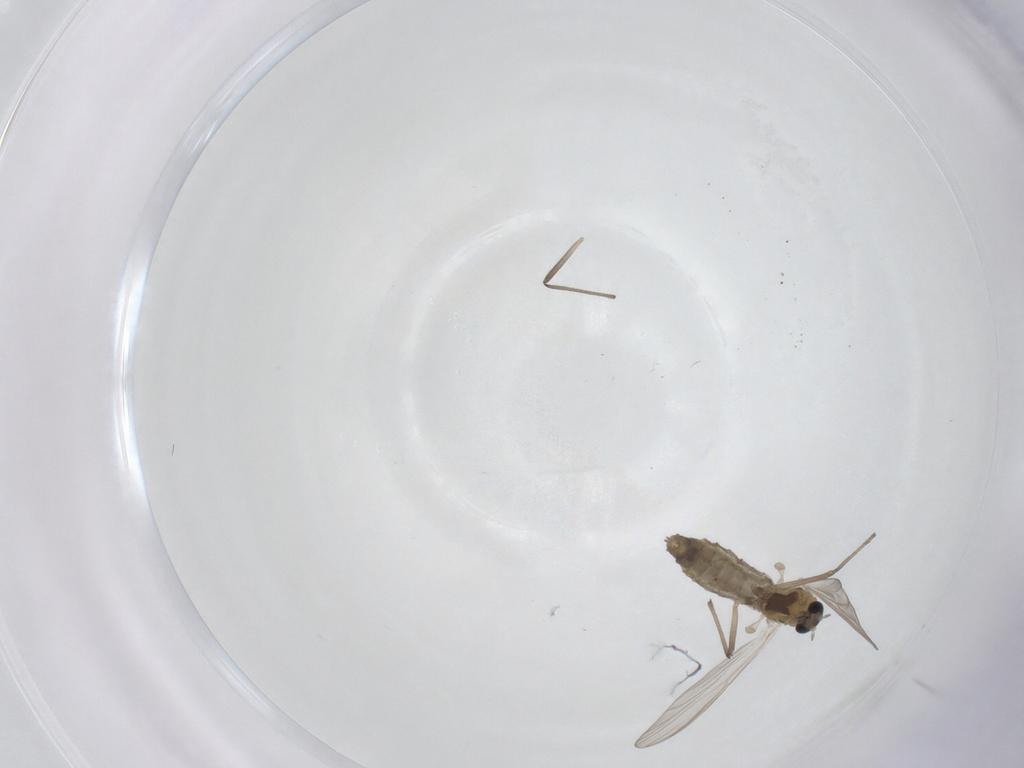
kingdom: Animalia
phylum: Arthropoda
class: Insecta
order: Diptera
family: Chironomidae
